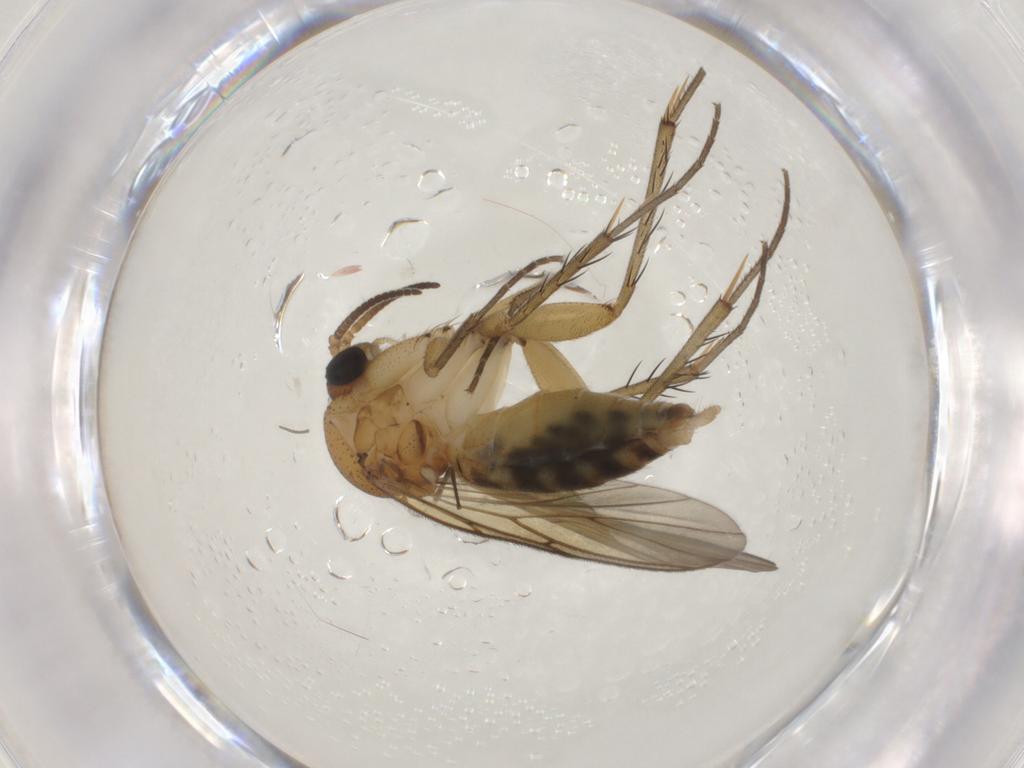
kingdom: Animalia
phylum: Arthropoda
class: Insecta
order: Diptera
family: Mycetophilidae
